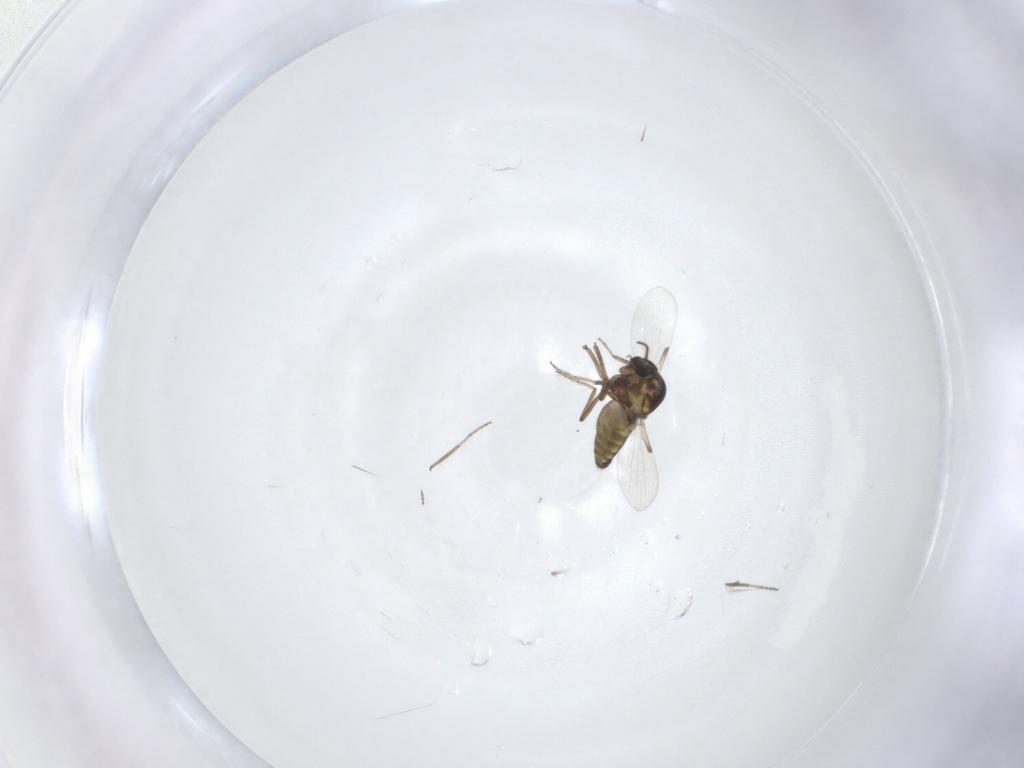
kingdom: Animalia
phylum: Arthropoda
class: Insecta
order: Diptera
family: Ceratopogonidae
